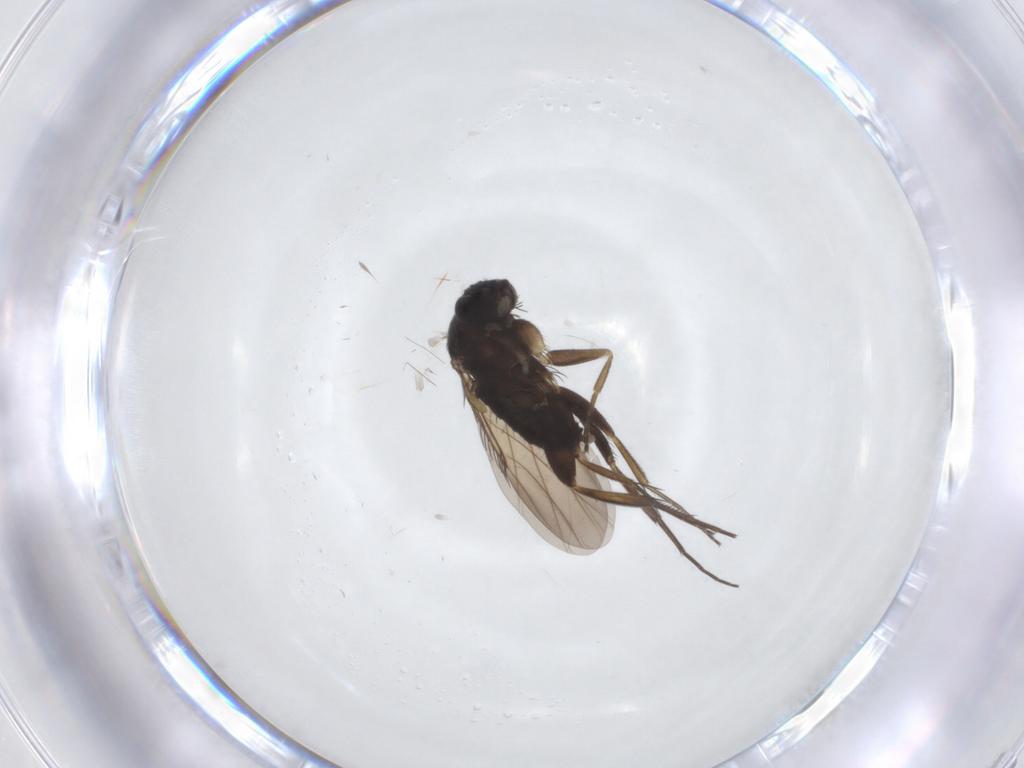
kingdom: Animalia
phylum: Arthropoda
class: Insecta
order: Diptera
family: Phoridae
